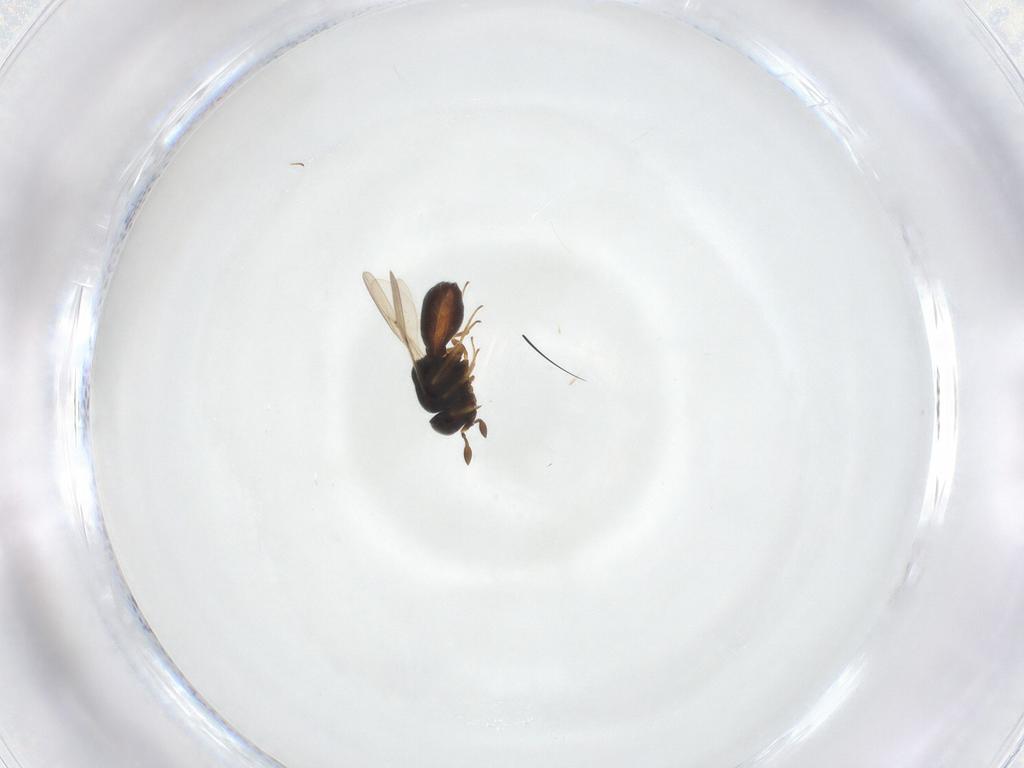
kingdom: Animalia
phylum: Arthropoda
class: Insecta
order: Hymenoptera
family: Scelionidae
